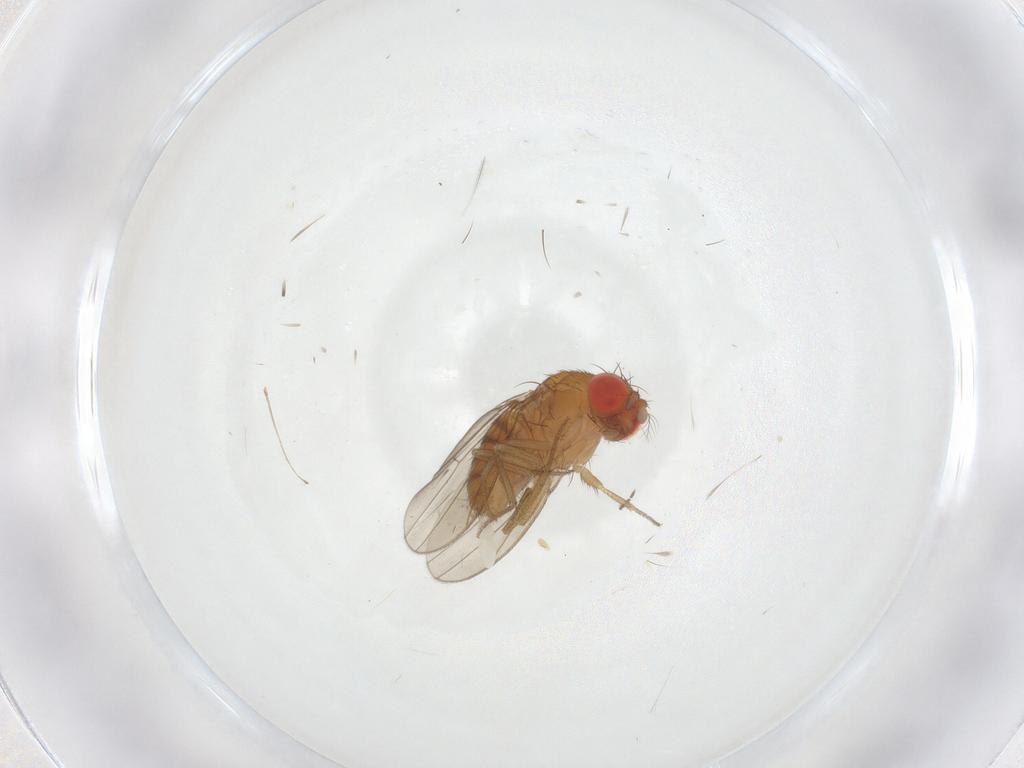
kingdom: Animalia
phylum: Arthropoda
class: Insecta
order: Diptera
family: Drosophilidae
